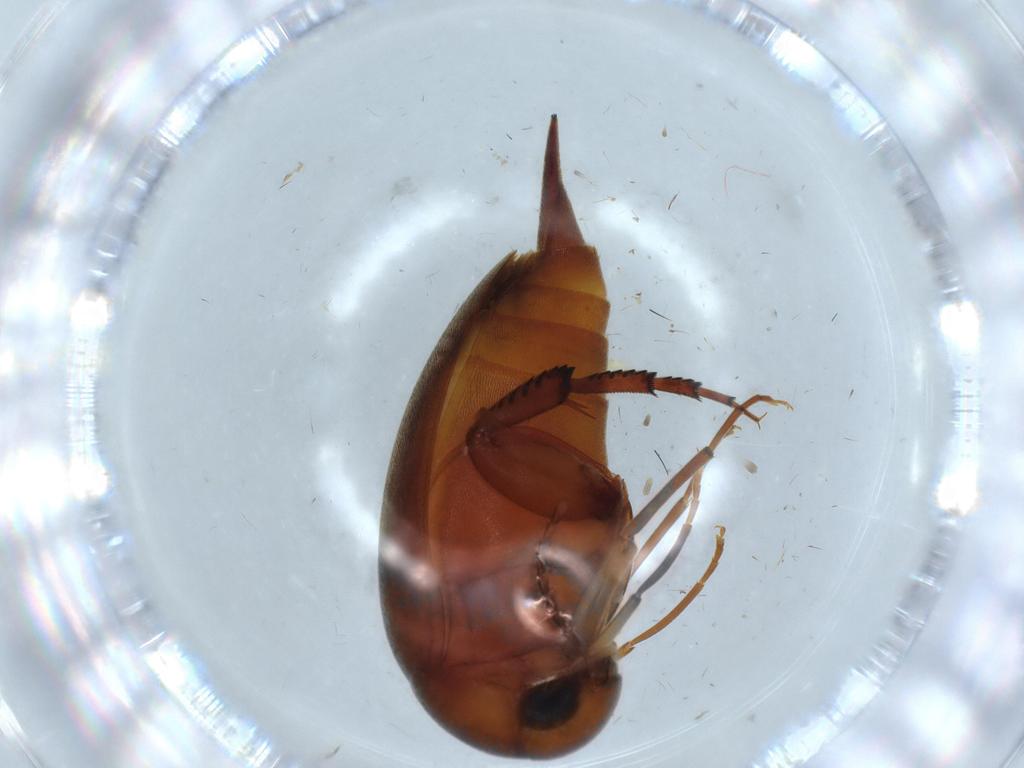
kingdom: Animalia
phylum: Arthropoda
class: Insecta
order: Coleoptera
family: Mordellidae
